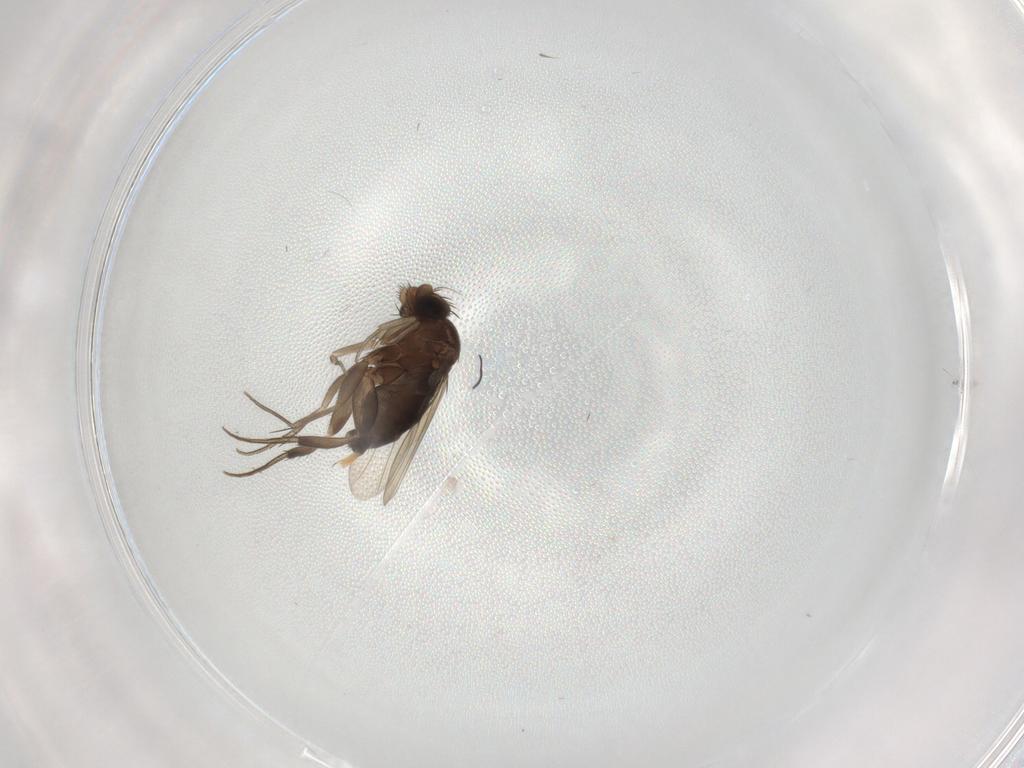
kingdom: Animalia
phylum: Arthropoda
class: Insecta
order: Diptera
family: Phoridae
